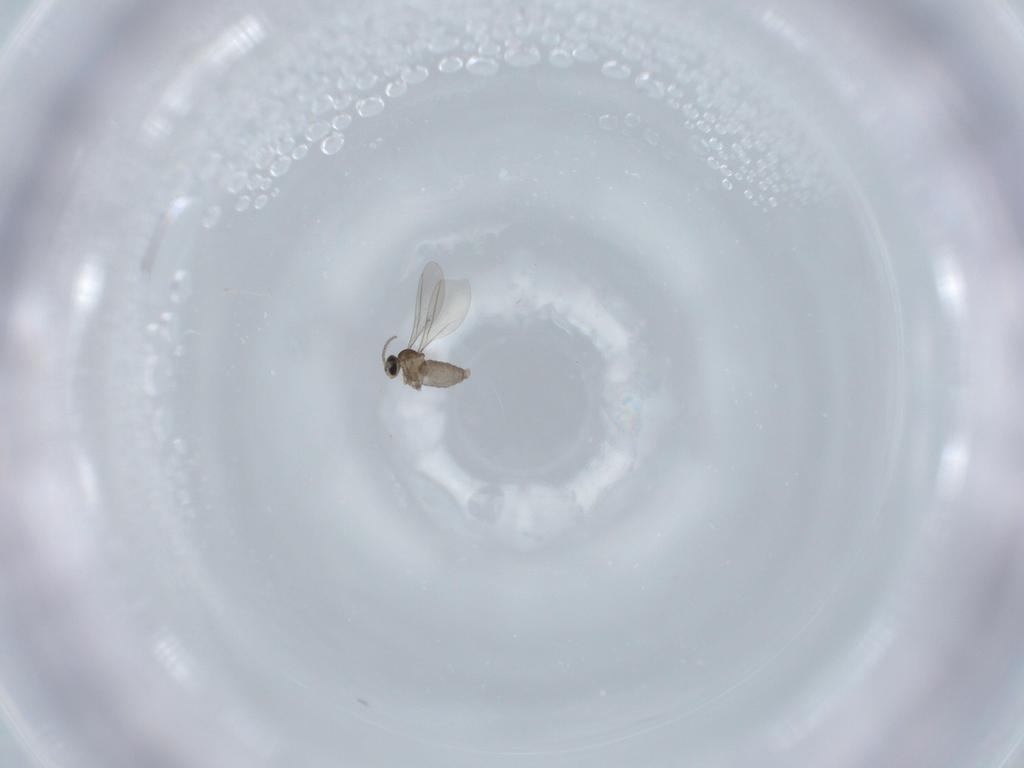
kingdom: Animalia
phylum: Arthropoda
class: Insecta
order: Diptera
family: Cecidomyiidae
